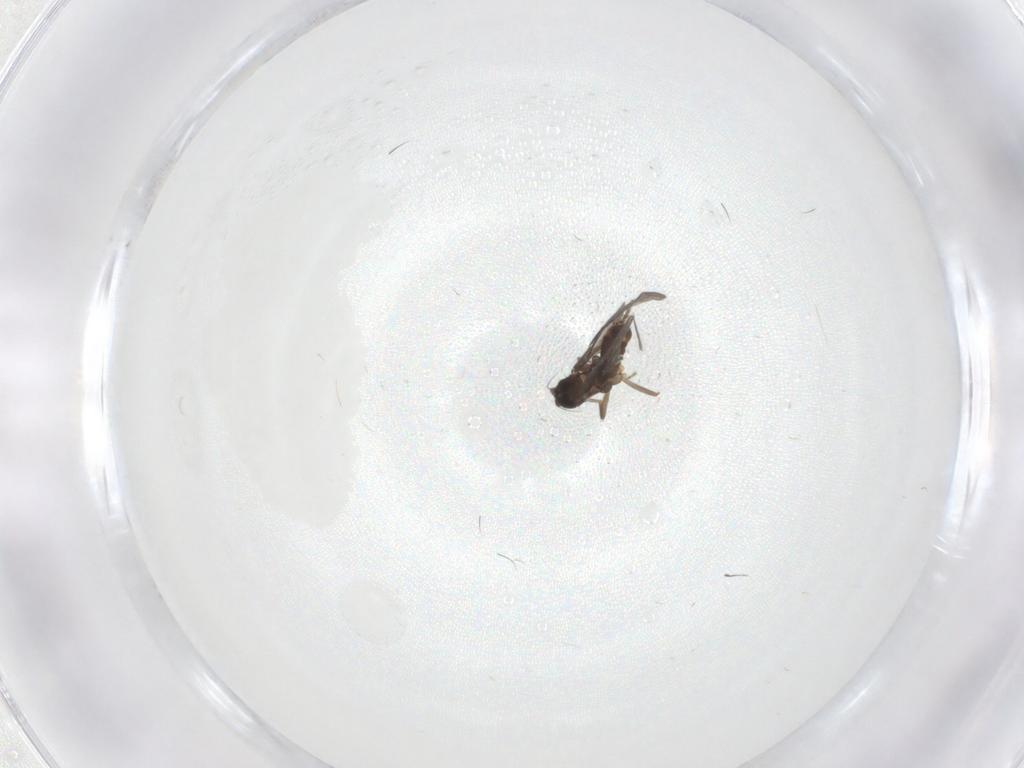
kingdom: Animalia
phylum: Arthropoda
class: Insecta
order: Diptera
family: Phoridae
